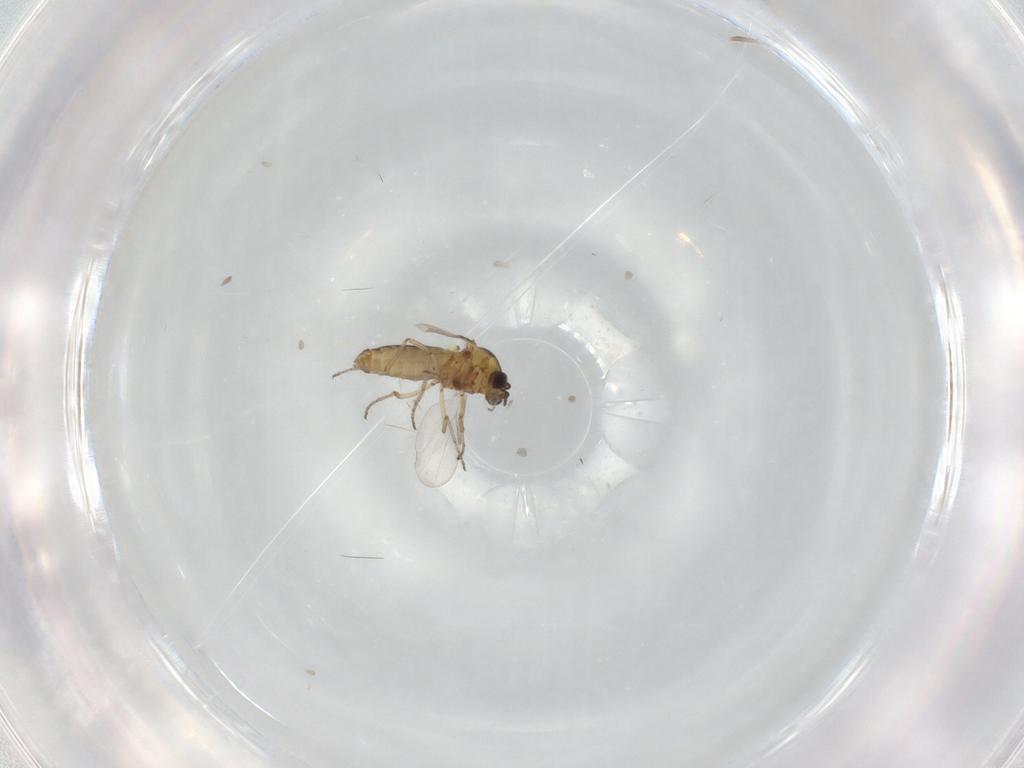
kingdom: Animalia
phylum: Arthropoda
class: Insecta
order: Diptera
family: Ceratopogonidae
